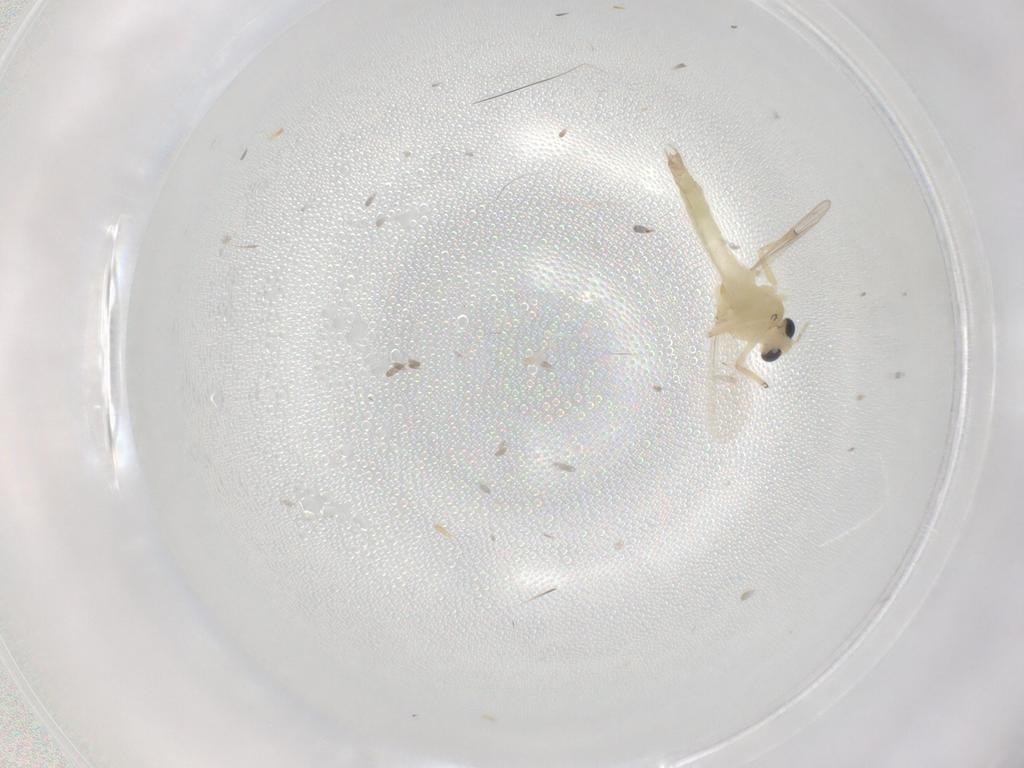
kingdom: Animalia
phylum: Arthropoda
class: Insecta
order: Diptera
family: Chironomidae
